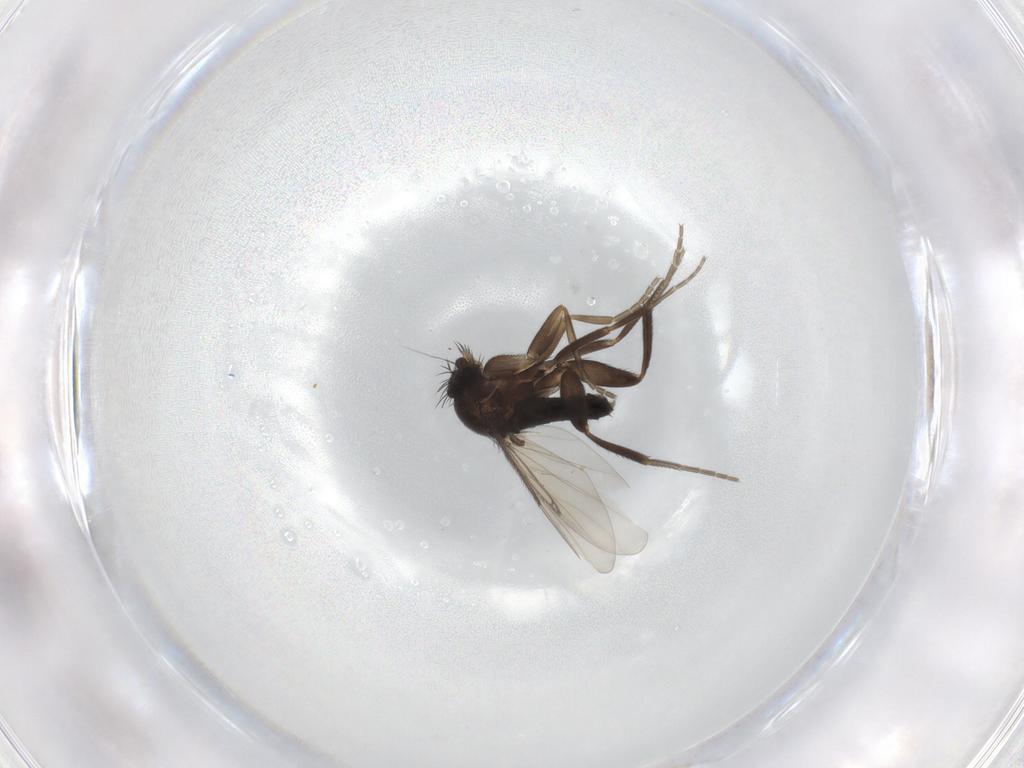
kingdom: Animalia
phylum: Arthropoda
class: Insecta
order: Diptera
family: Phoridae
